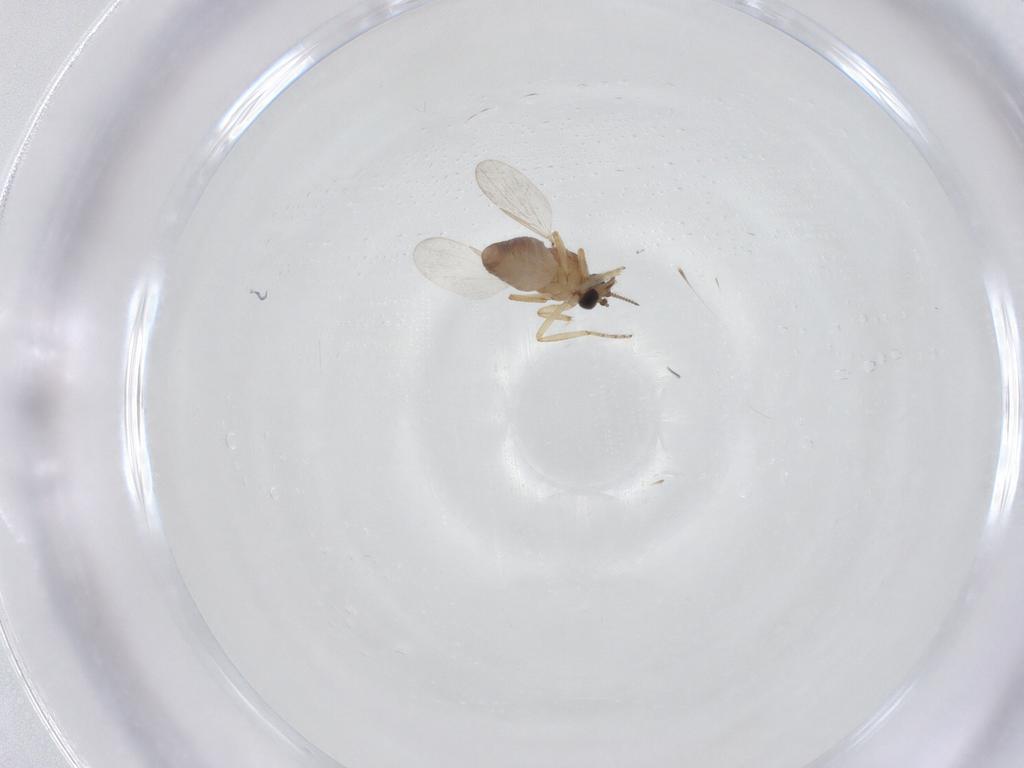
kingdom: Animalia
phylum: Arthropoda
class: Insecta
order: Diptera
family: Ceratopogonidae
